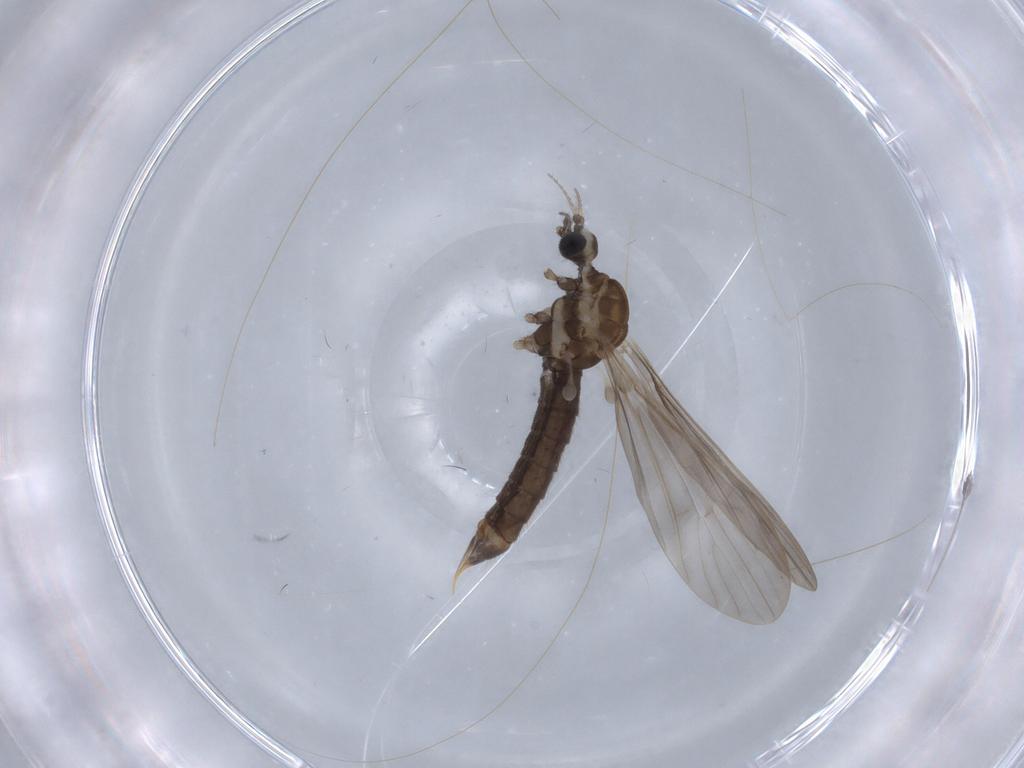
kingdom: Animalia
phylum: Arthropoda
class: Insecta
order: Diptera
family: Limoniidae
